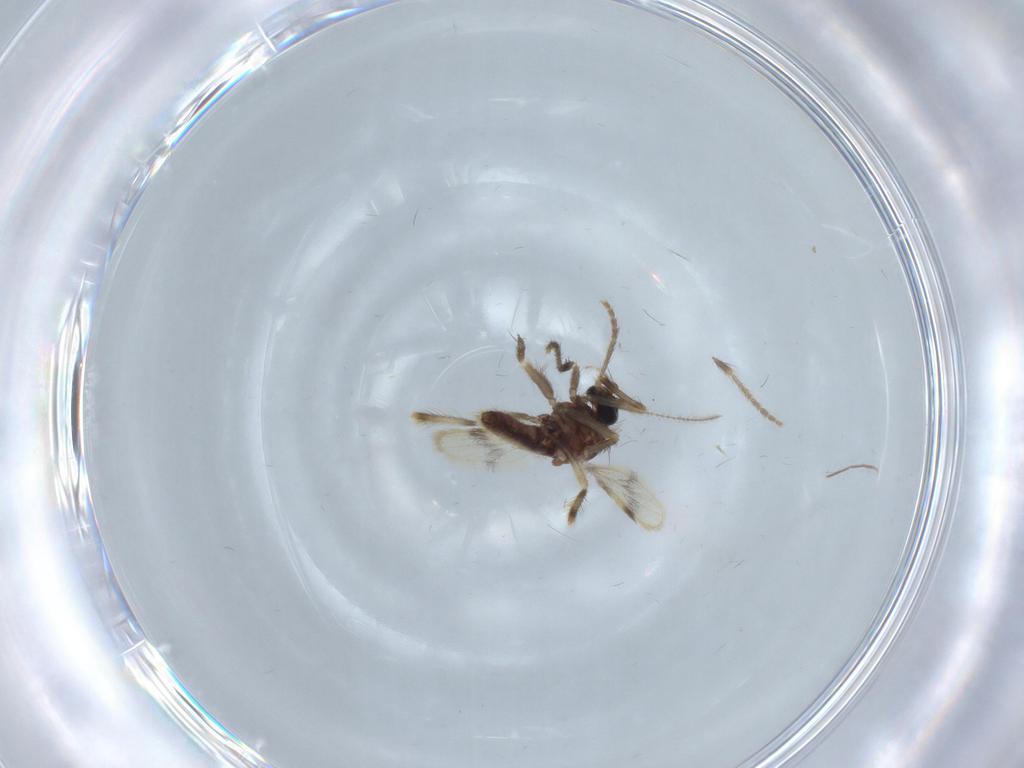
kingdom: Animalia
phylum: Arthropoda
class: Insecta
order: Diptera
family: Corethrellidae
